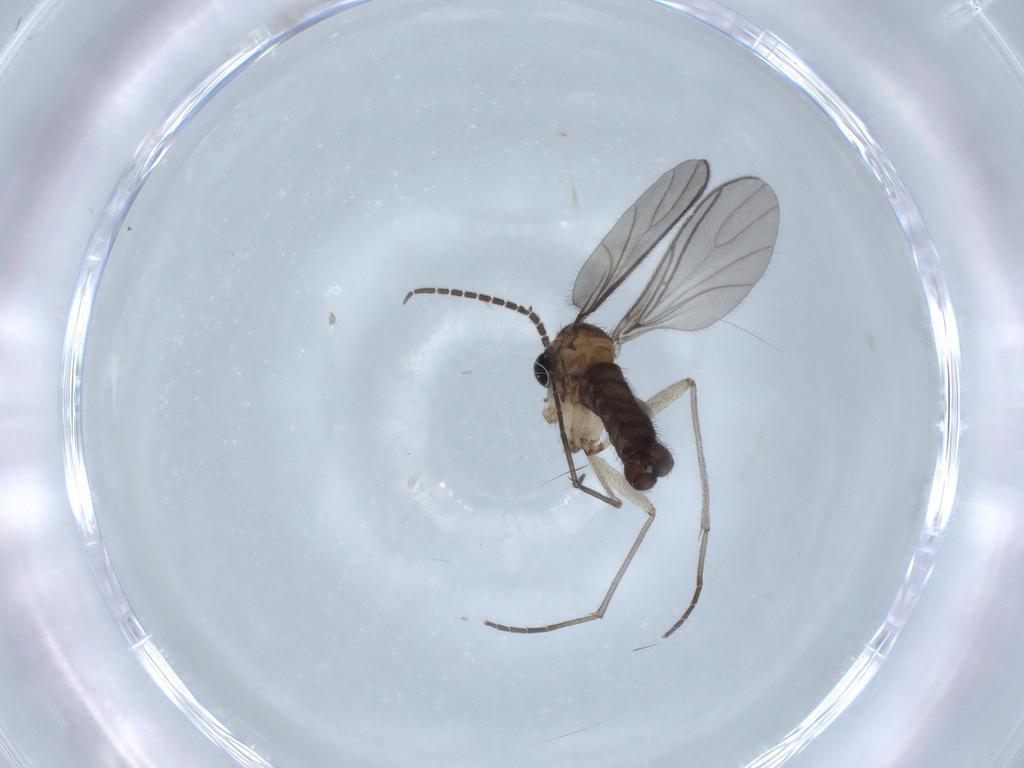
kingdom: Animalia
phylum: Arthropoda
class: Insecta
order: Diptera
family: Sciaridae
